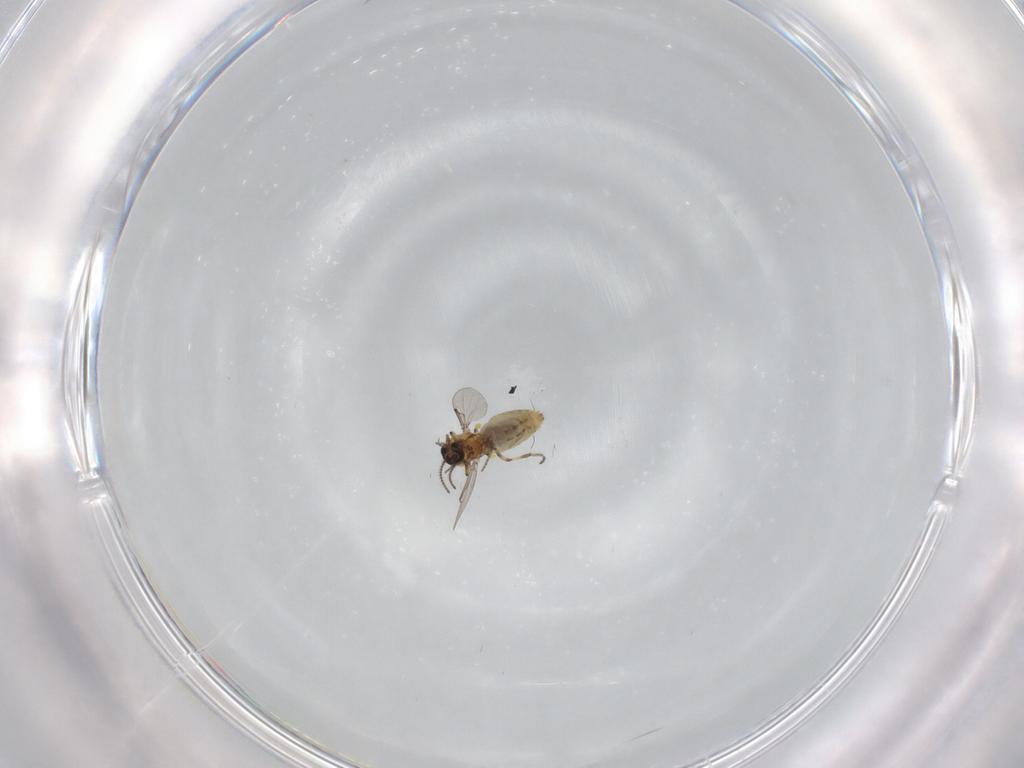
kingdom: Animalia
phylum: Arthropoda
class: Insecta
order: Diptera
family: Ceratopogonidae
